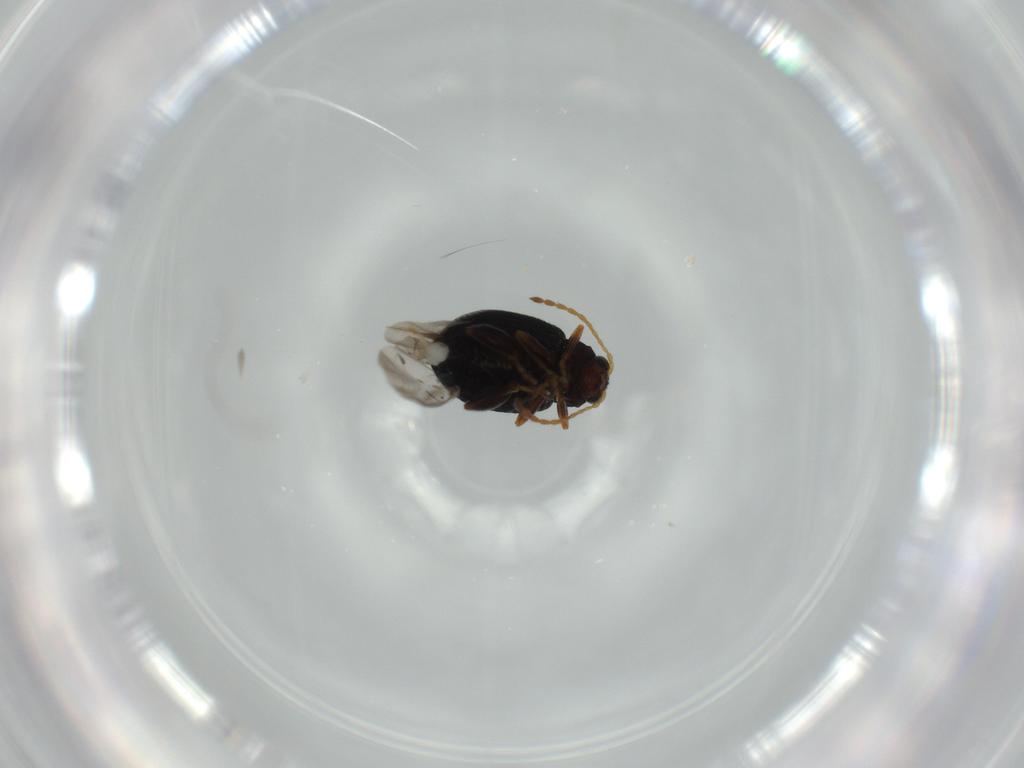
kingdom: Animalia
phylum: Arthropoda
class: Insecta
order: Coleoptera
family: Chrysomelidae
